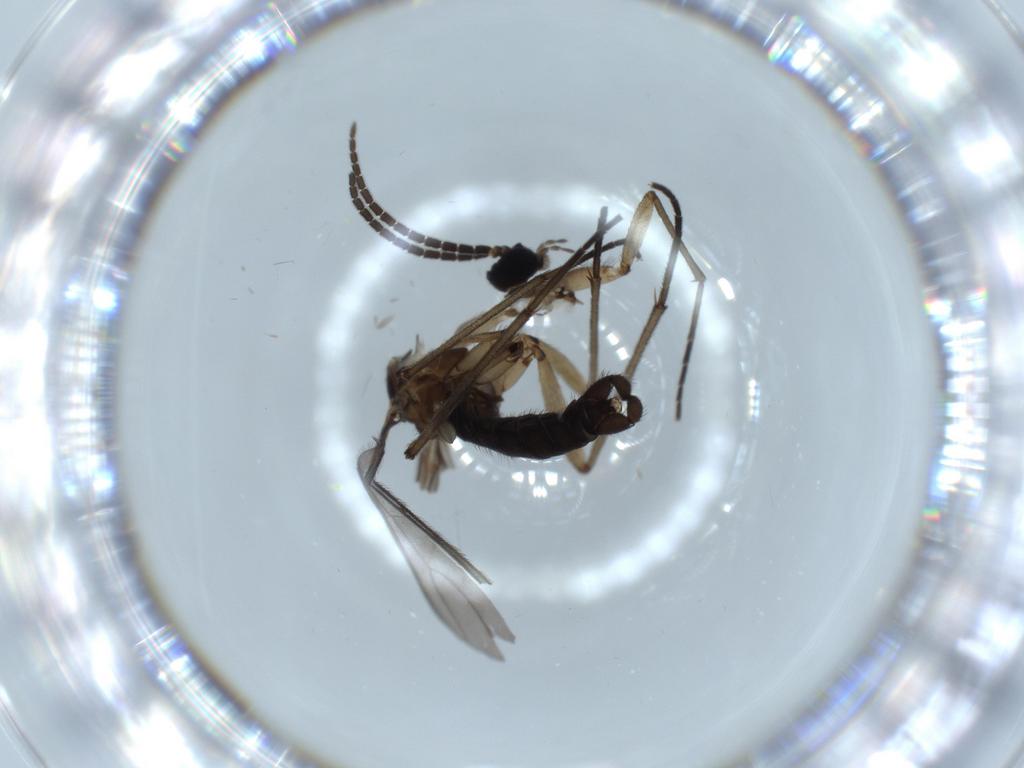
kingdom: Animalia
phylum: Arthropoda
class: Insecta
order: Diptera
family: Sciaridae
